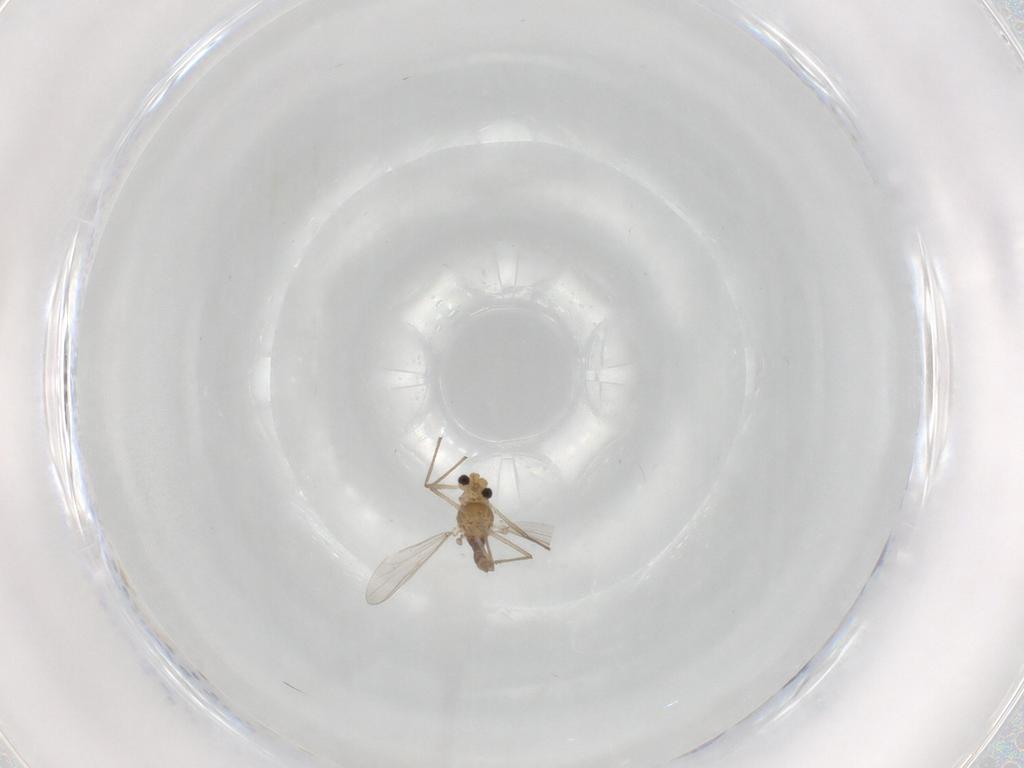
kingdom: Animalia
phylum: Arthropoda
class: Insecta
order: Diptera
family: Chironomidae
